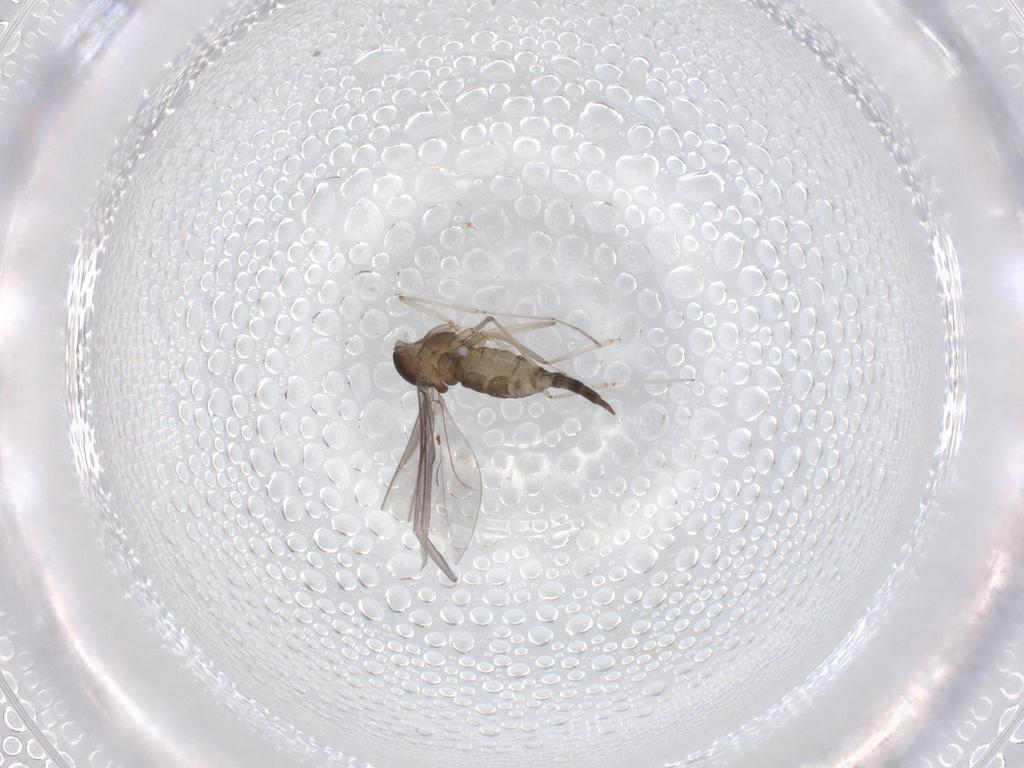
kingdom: Animalia
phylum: Arthropoda
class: Insecta
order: Diptera
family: Cecidomyiidae
